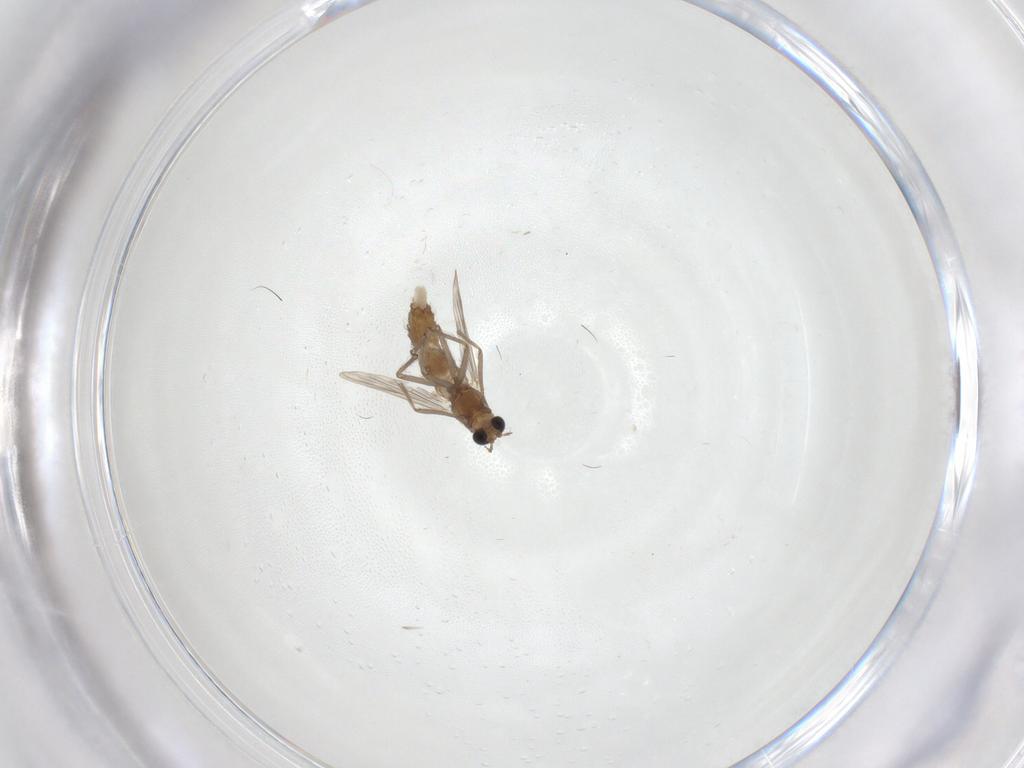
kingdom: Animalia
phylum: Arthropoda
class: Insecta
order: Diptera
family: Chironomidae
